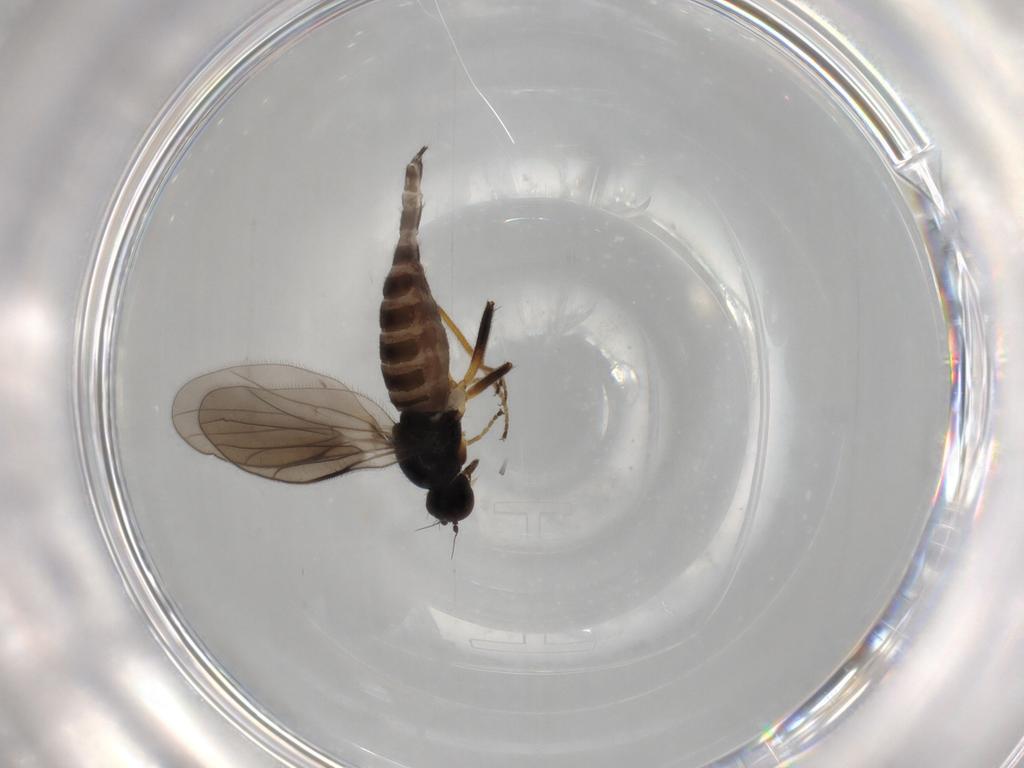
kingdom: Animalia
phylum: Arthropoda
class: Insecta
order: Diptera
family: Hybotidae
